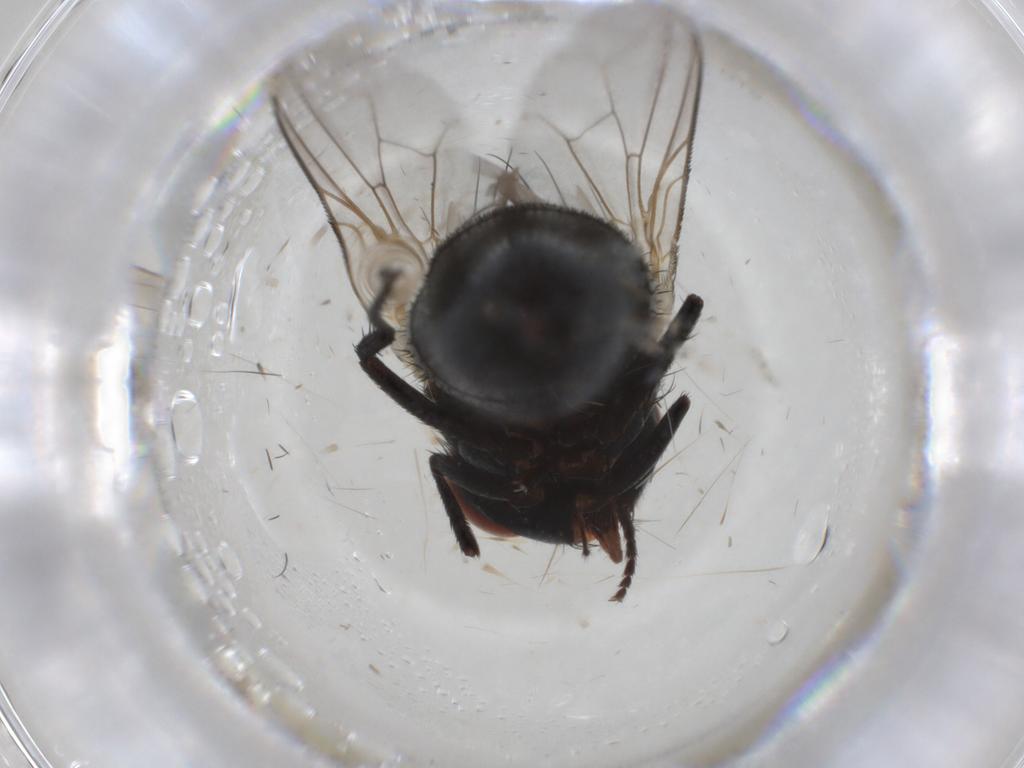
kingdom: Animalia
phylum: Arthropoda
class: Insecta
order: Diptera
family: Sarcophagidae
